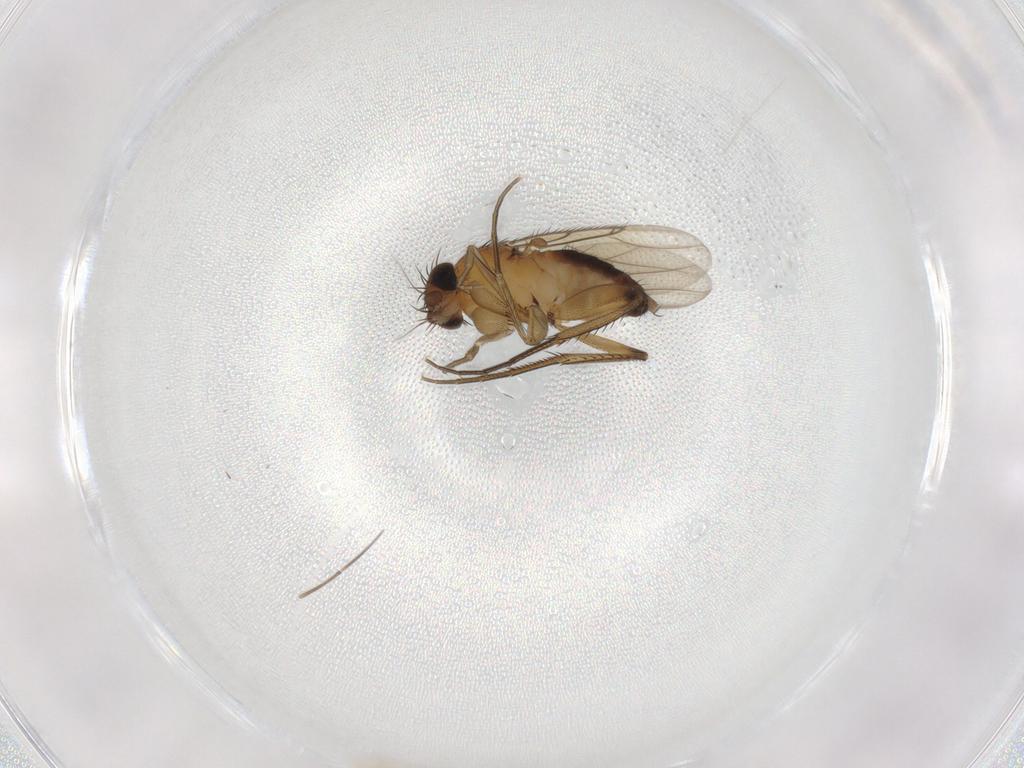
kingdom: Animalia
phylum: Arthropoda
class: Insecta
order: Diptera
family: Phoridae
